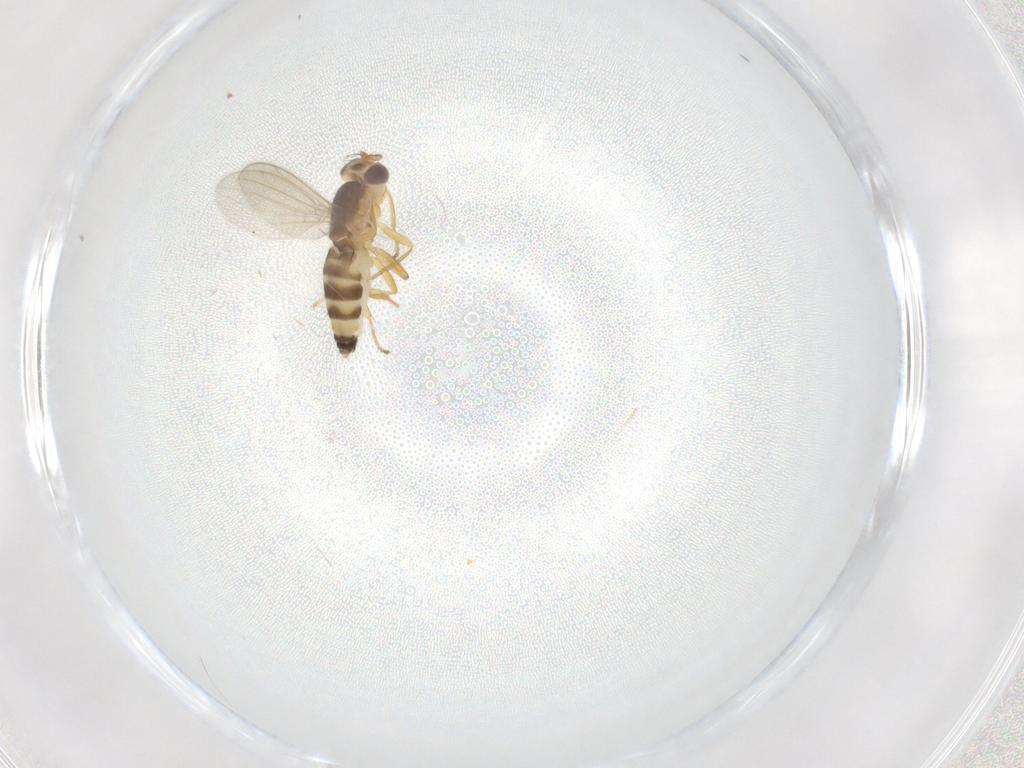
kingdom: Animalia
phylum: Arthropoda
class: Insecta
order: Diptera
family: Periscelididae
